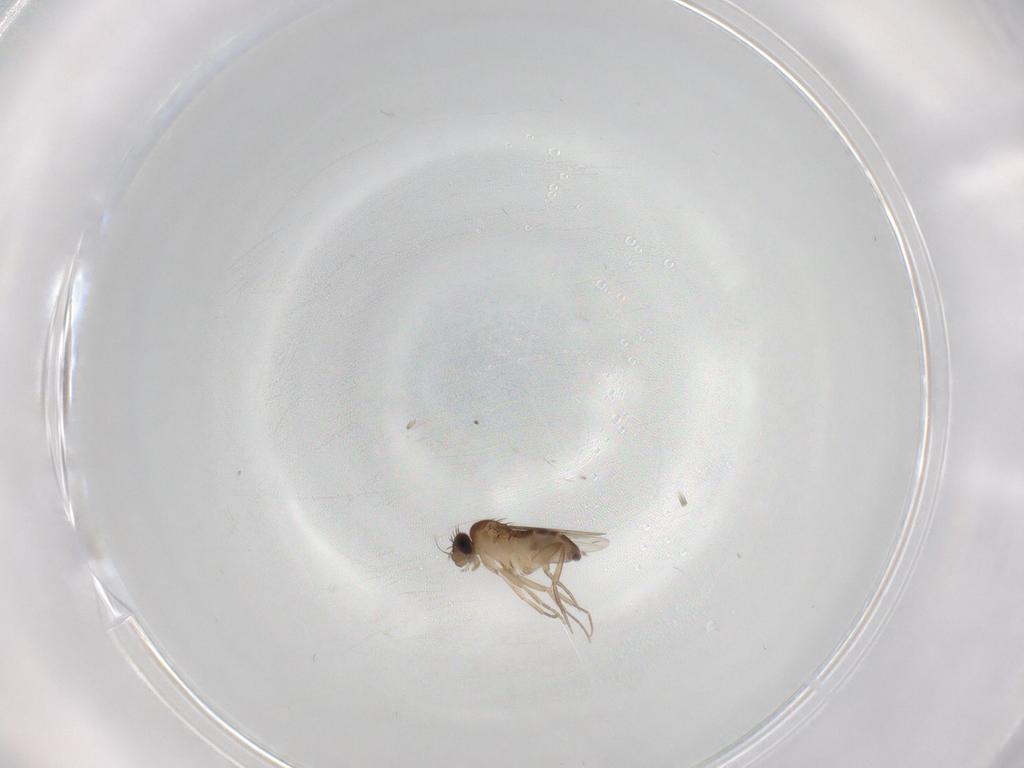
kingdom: Animalia
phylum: Arthropoda
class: Insecta
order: Diptera
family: Phoridae
